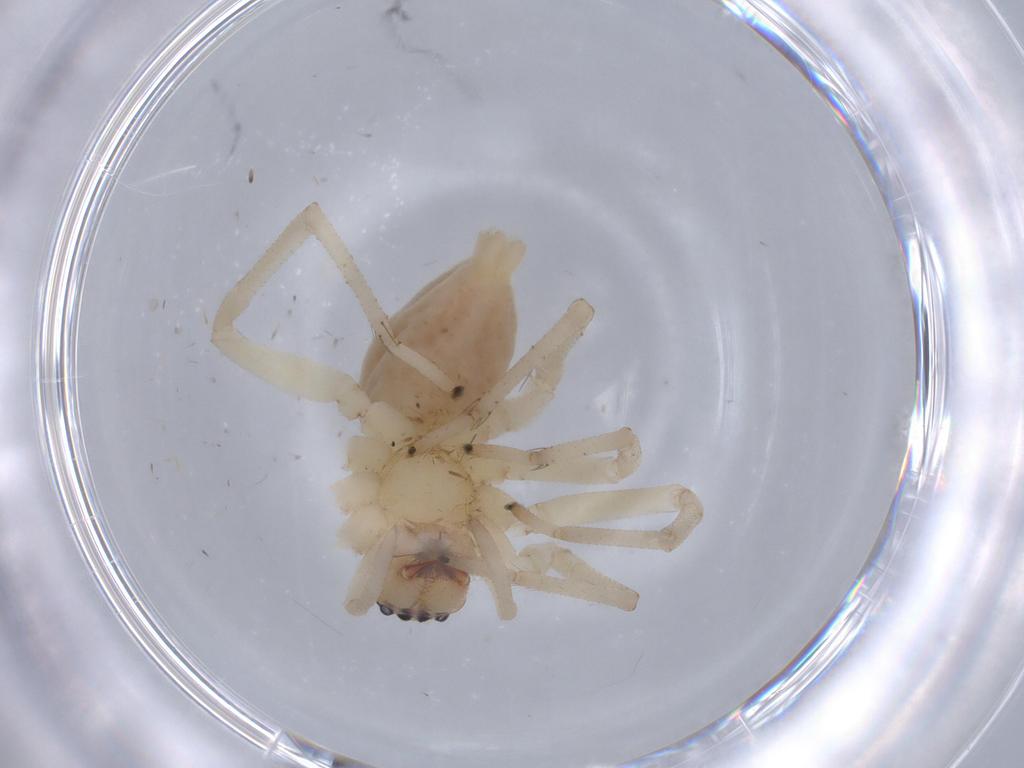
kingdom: Animalia
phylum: Arthropoda
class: Arachnida
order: Araneae
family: Cheiracanthiidae
